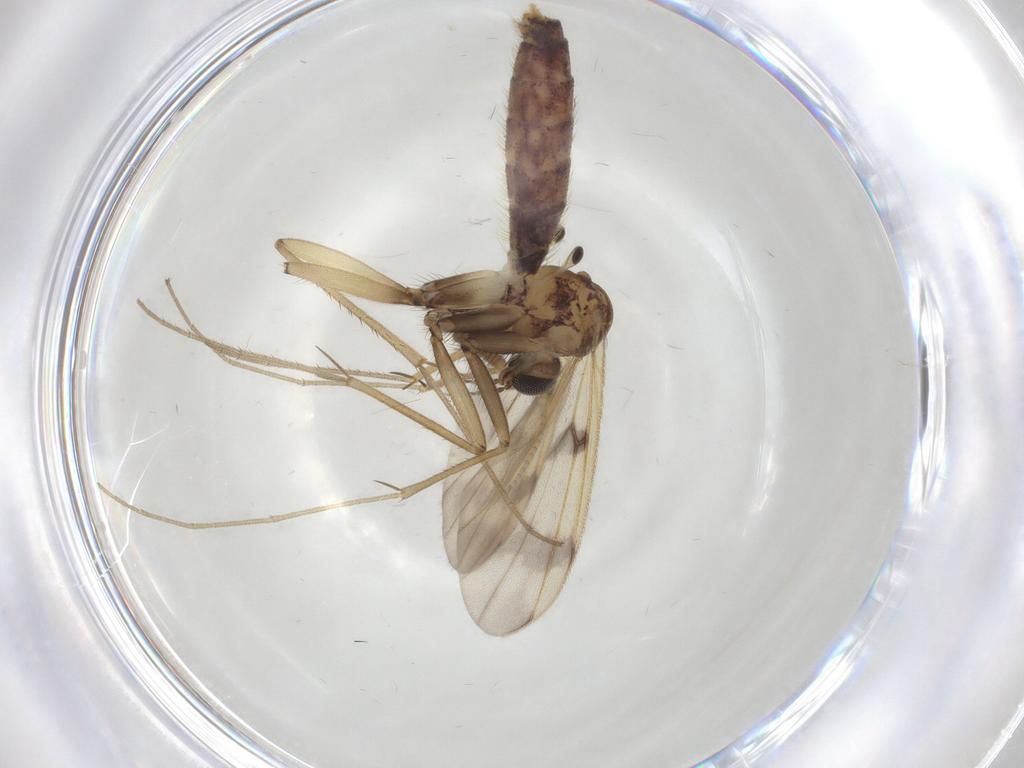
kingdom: Animalia
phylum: Arthropoda
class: Insecta
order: Diptera
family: Mycetophilidae
